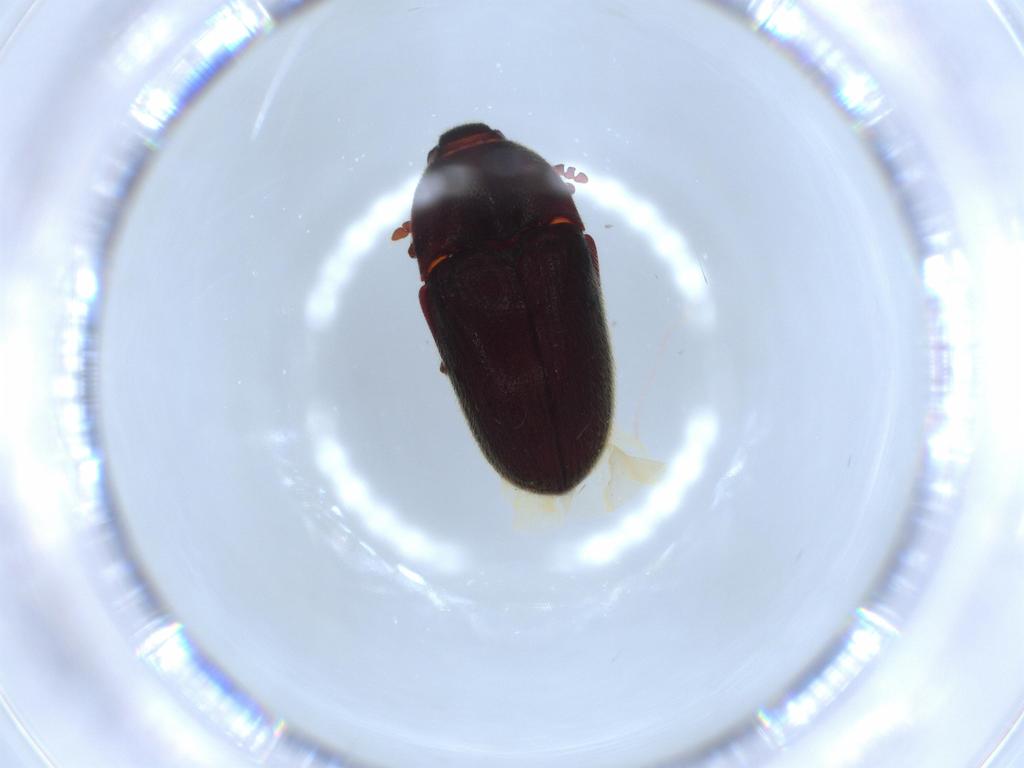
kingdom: Animalia
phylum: Arthropoda
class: Insecta
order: Coleoptera
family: Throscidae
